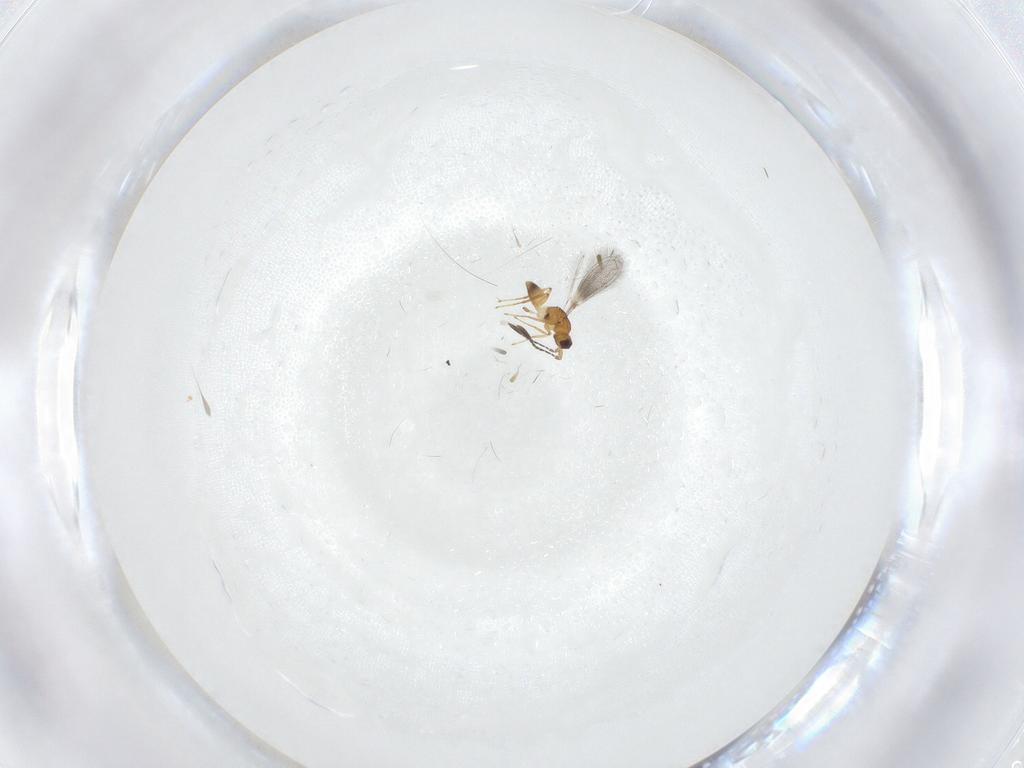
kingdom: Animalia
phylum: Arthropoda
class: Insecta
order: Hymenoptera
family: Mymaridae
